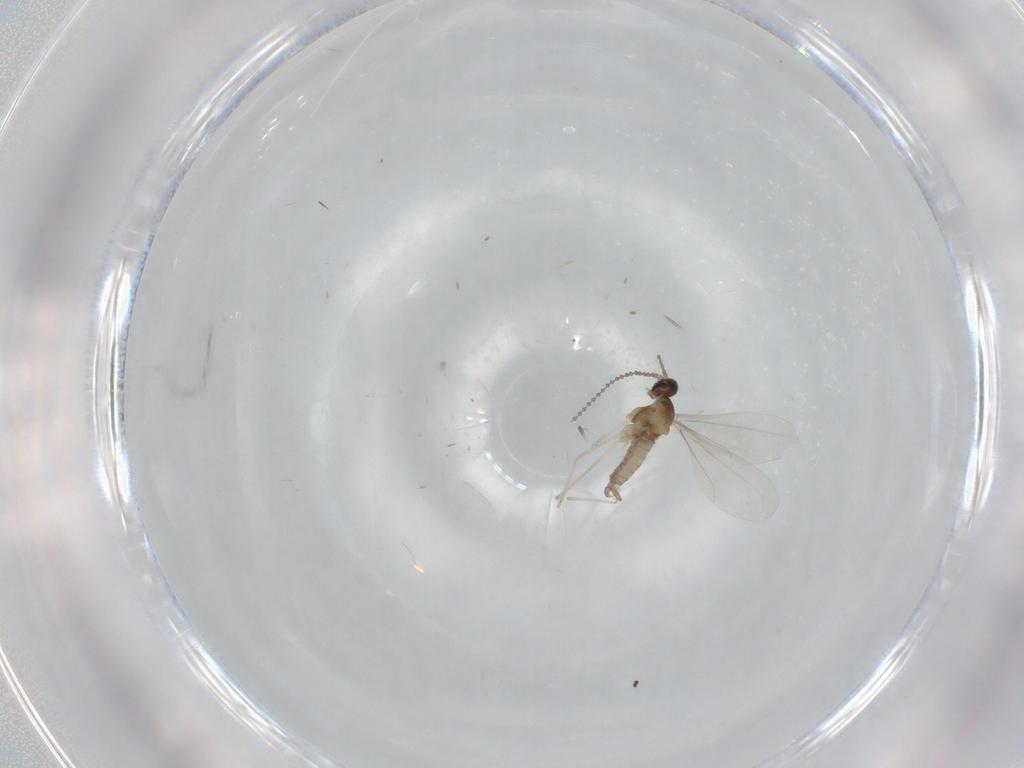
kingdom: Animalia
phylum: Arthropoda
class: Insecta
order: Diptera
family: Cecidomyiidae
